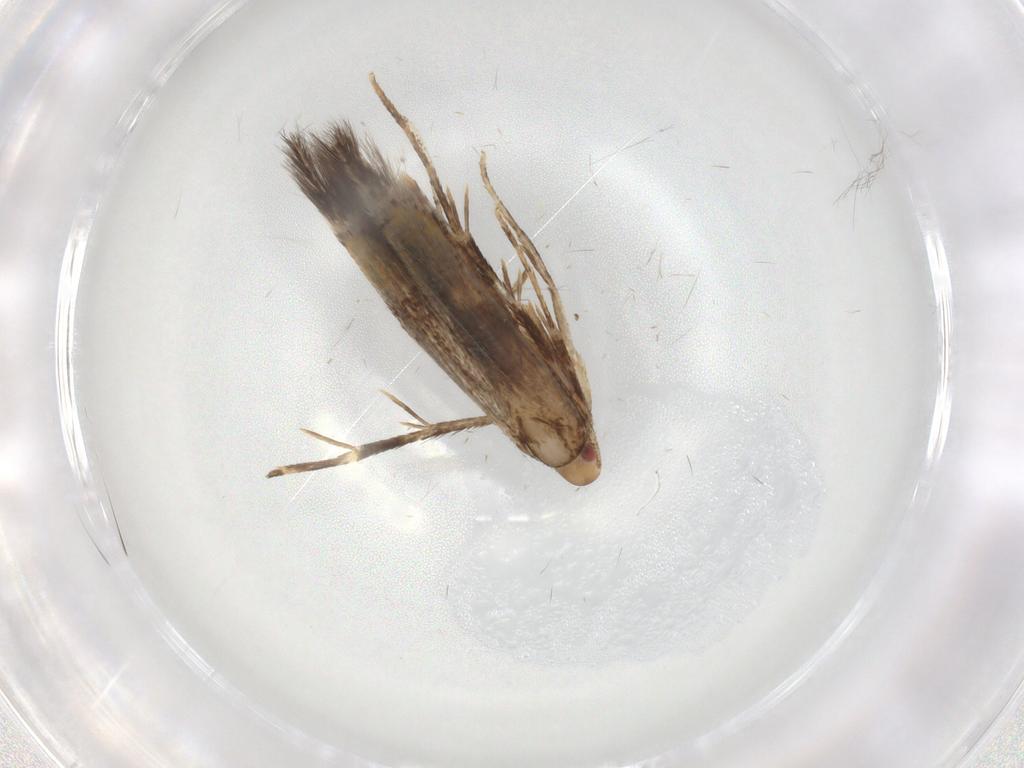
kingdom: Animalia
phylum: Arthropoda
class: Insecta
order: Lepidoptera
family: Cosmopterigidae
